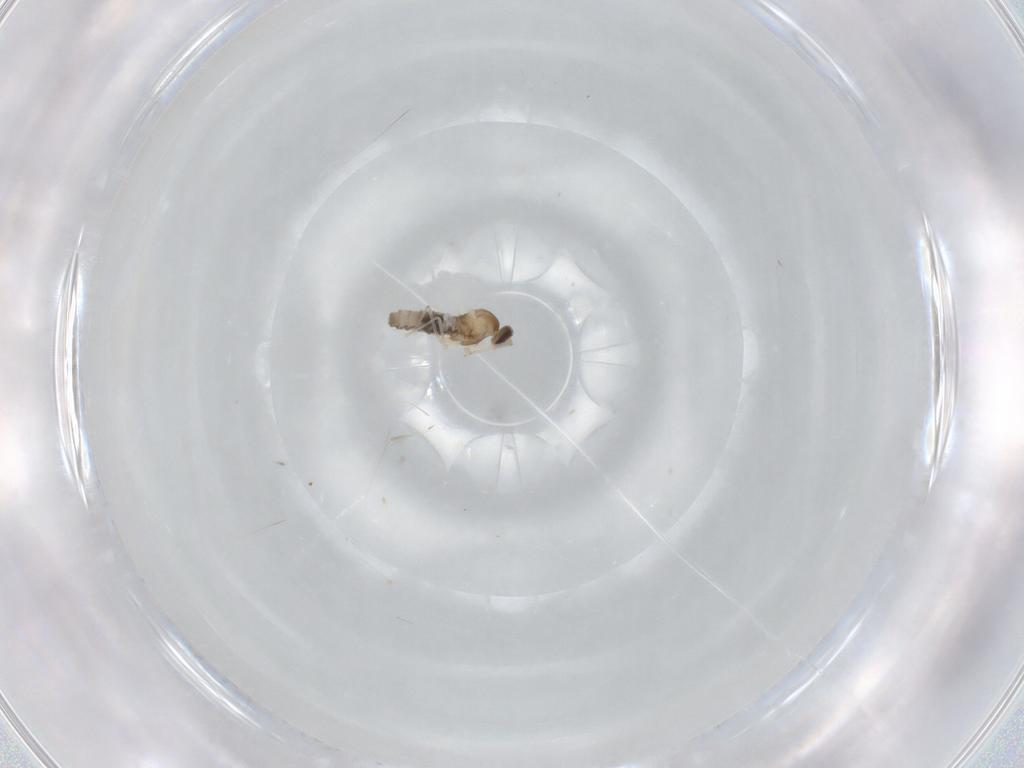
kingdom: Animalia
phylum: Arthropoda
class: Insecta
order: Diptera
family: Cecidomyiidae
